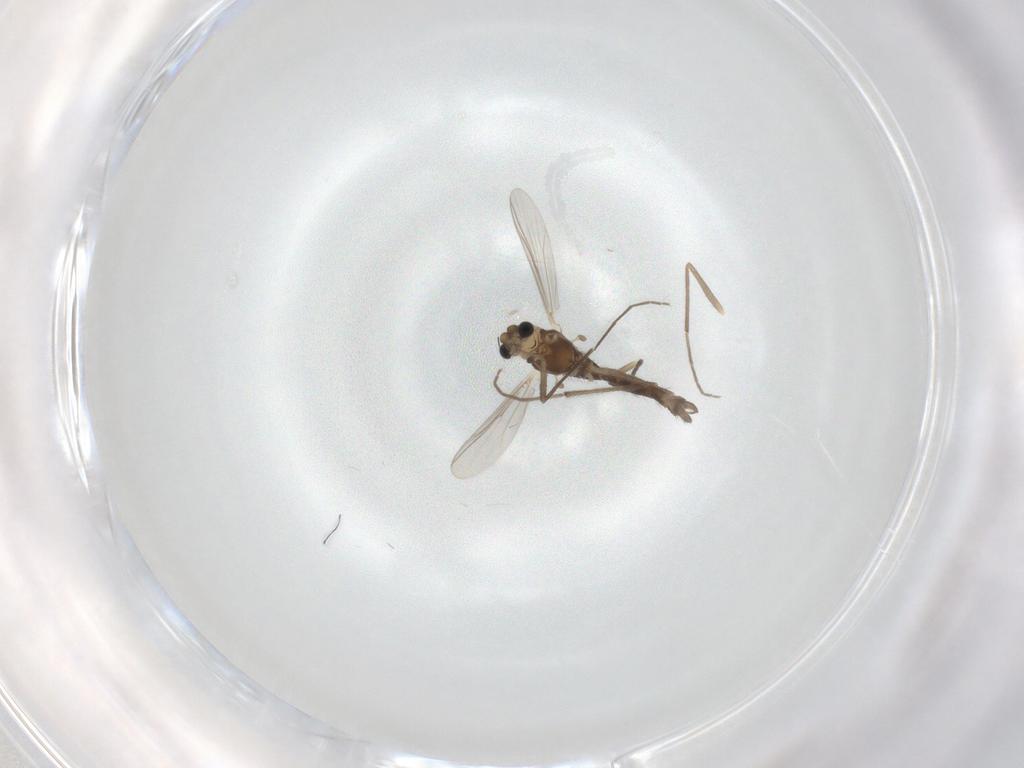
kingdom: Animalia
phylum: Arthropoda
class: Insecta
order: Diptera
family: Chironomidae
